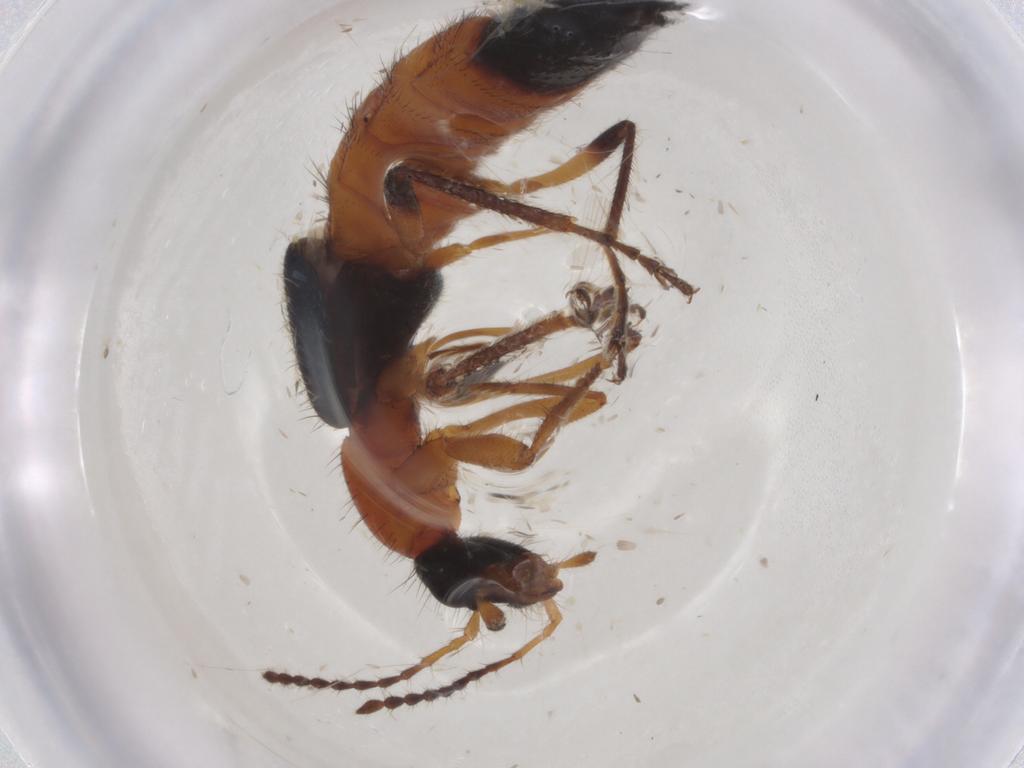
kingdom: Animalia
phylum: Arthropoda
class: Insecta
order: Coleoptera
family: Staphylinidae
